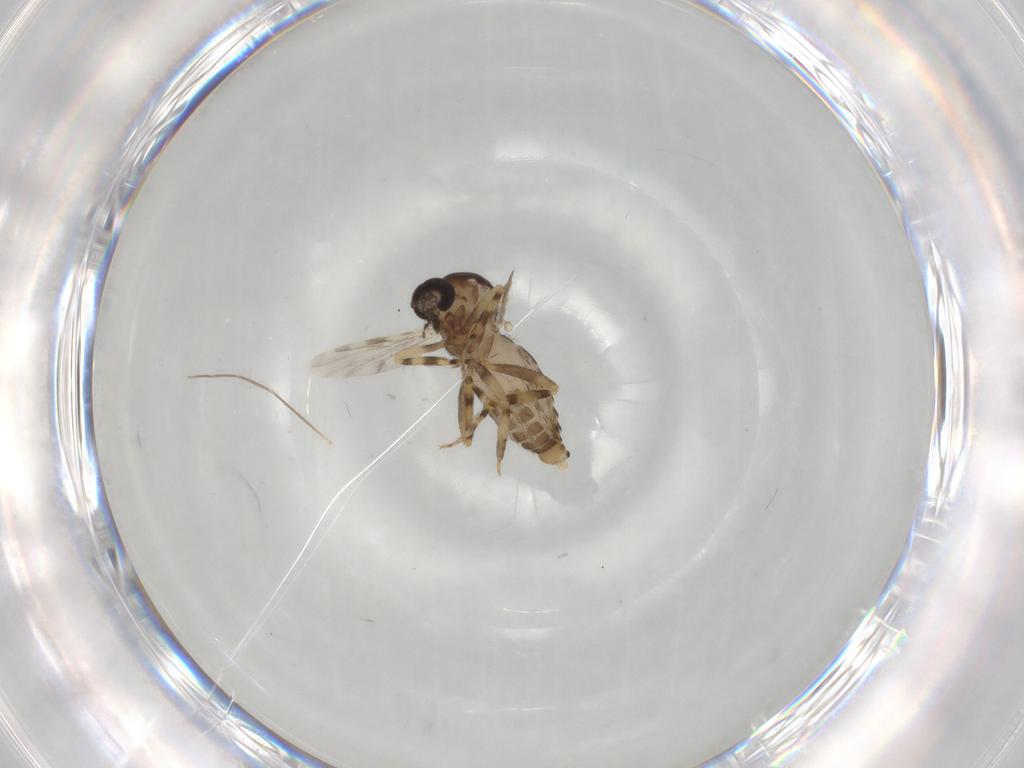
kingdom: Animalia
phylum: Arthropoda
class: Insecta
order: Diptera
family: Ceratopogonidae
